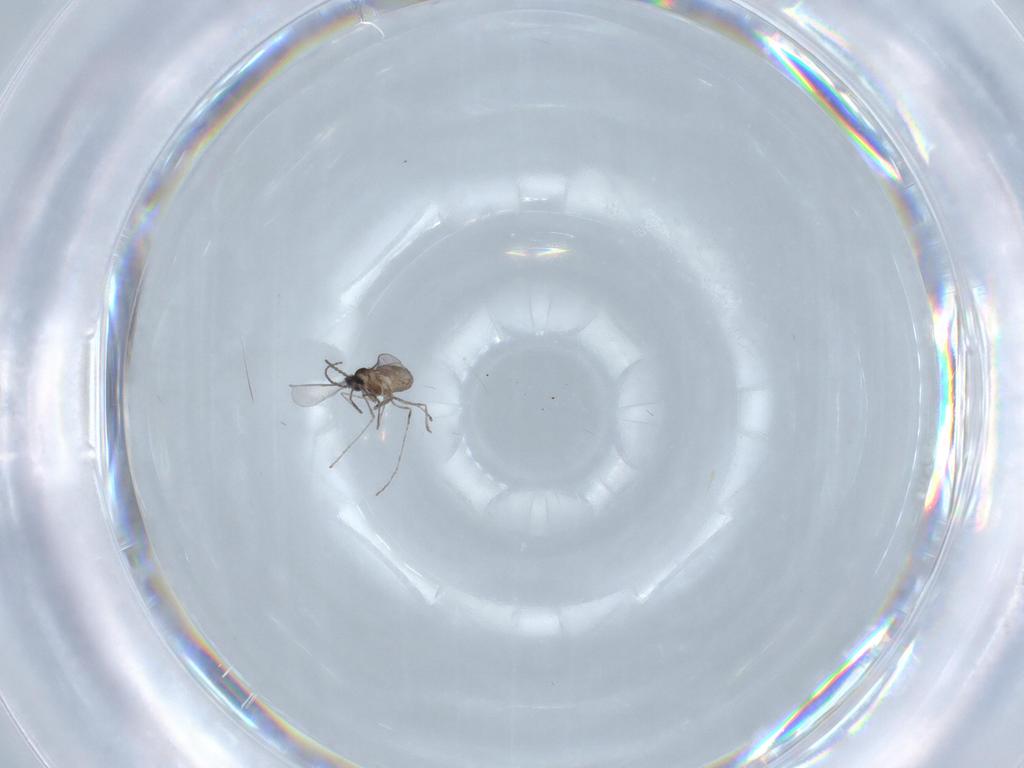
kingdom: Animalia
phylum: Arthropoda
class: Insecta
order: Diptera
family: Cecidomyiidae
